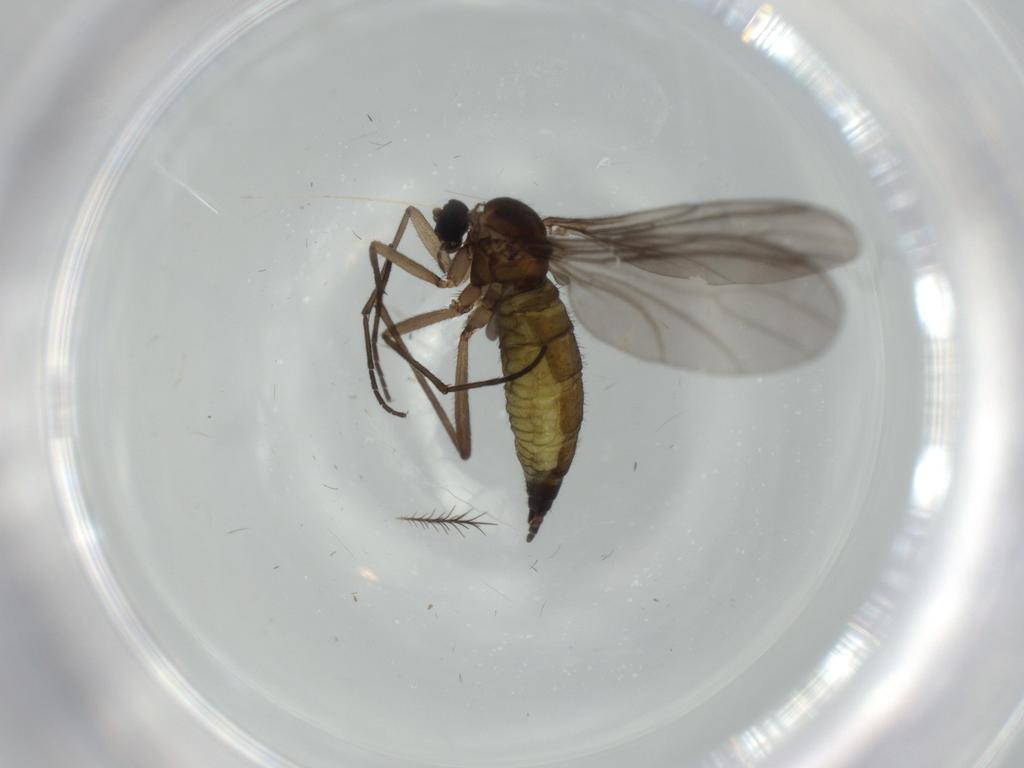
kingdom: Animalia
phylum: Arthropoda
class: Insecta
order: Diptera
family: Sciaridae
